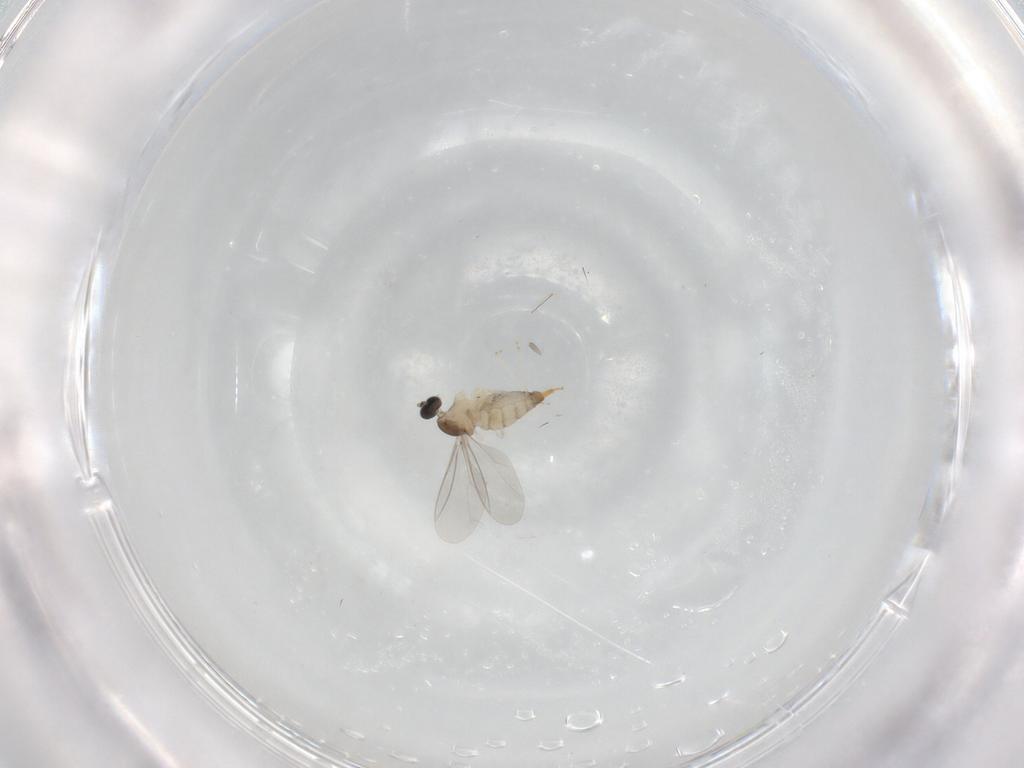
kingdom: Animalia
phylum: Arthropoda
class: Insecta
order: Diptera
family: Cecidomyiidae
